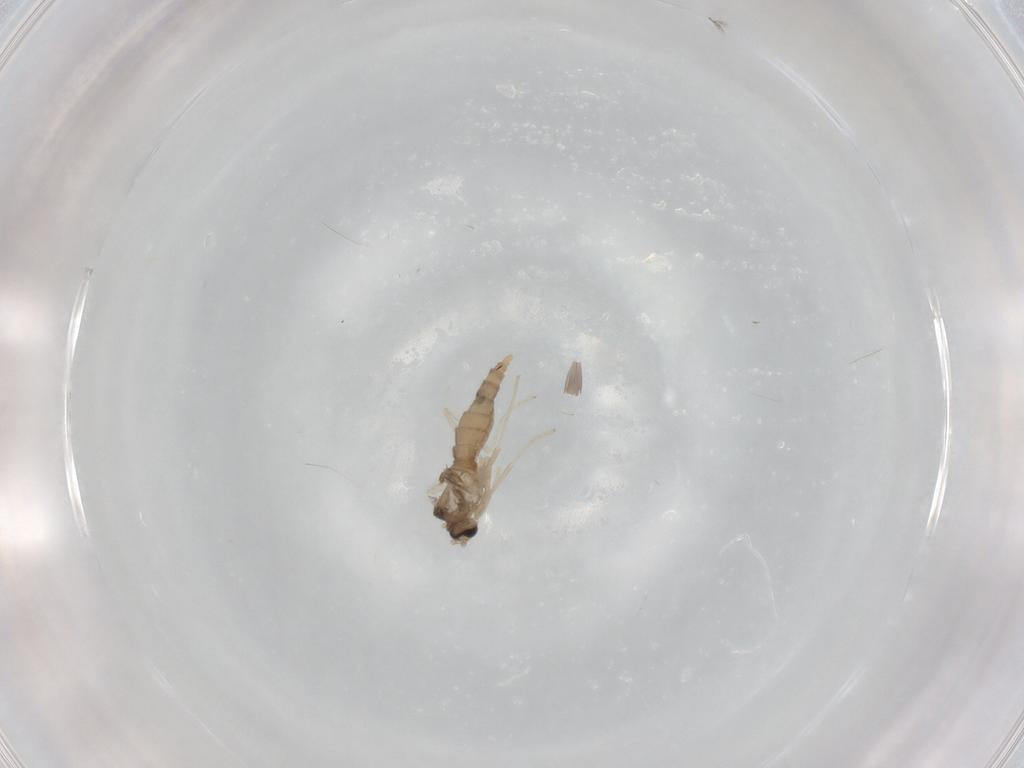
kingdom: Animalia
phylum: Arthropoda
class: Insecta
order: Diptera
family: Cecidomyiidae
